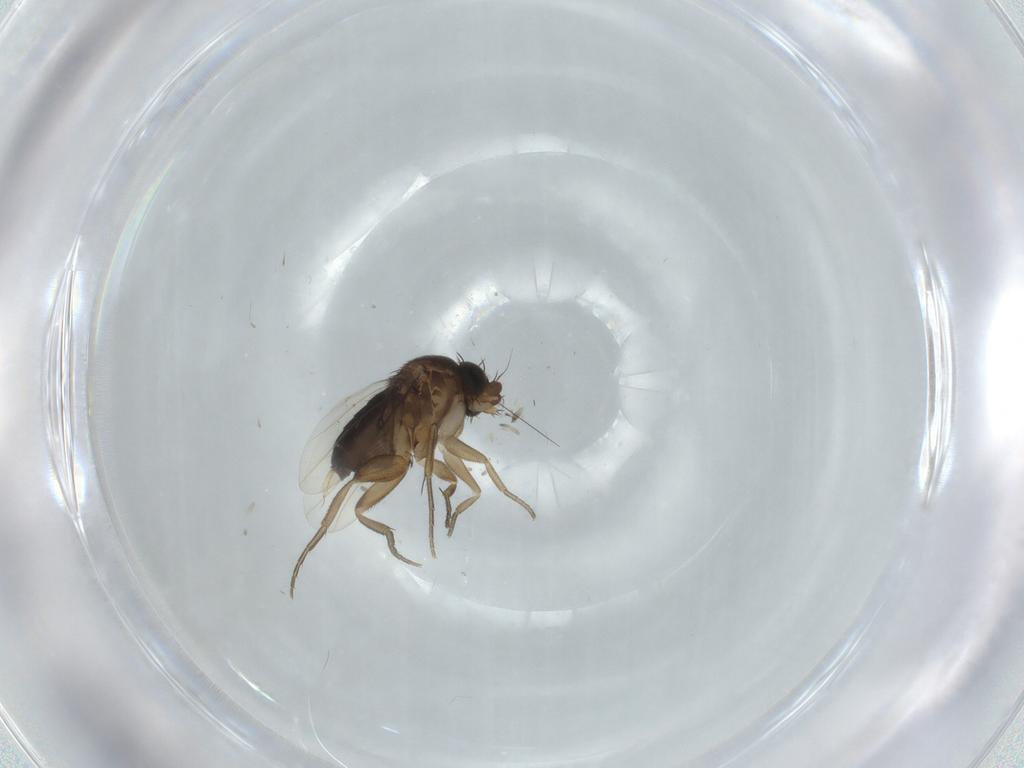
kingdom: Animalia
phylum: Arthropoda
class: Insecta
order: Diptera
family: Phoridae
